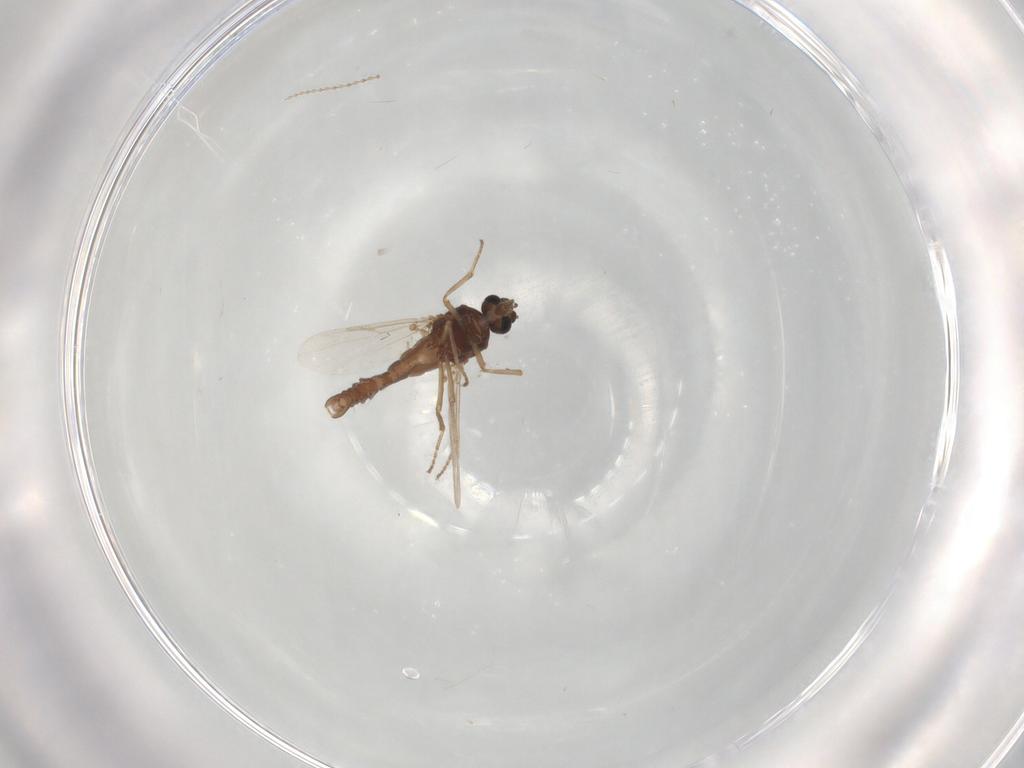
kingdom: Animalia
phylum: Arthropoda
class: Insecta
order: Diptera
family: Ceratopogonidae
